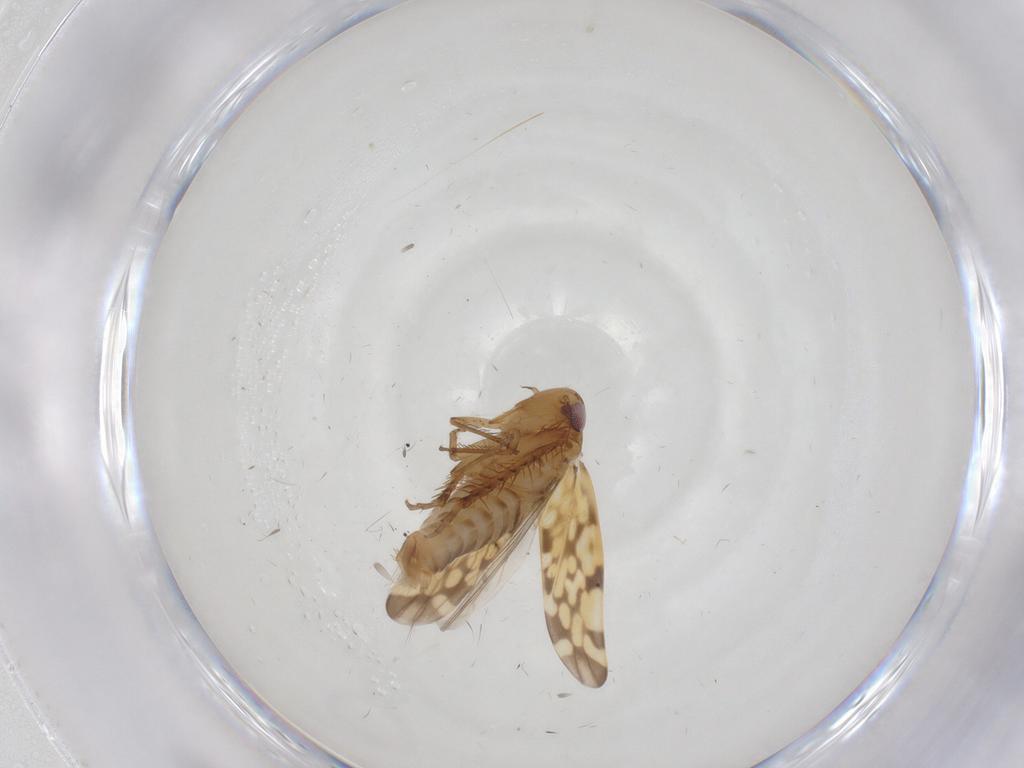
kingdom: Animalia
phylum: Arthropoda
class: Insecta
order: Hemiptera
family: Cicadellidae
